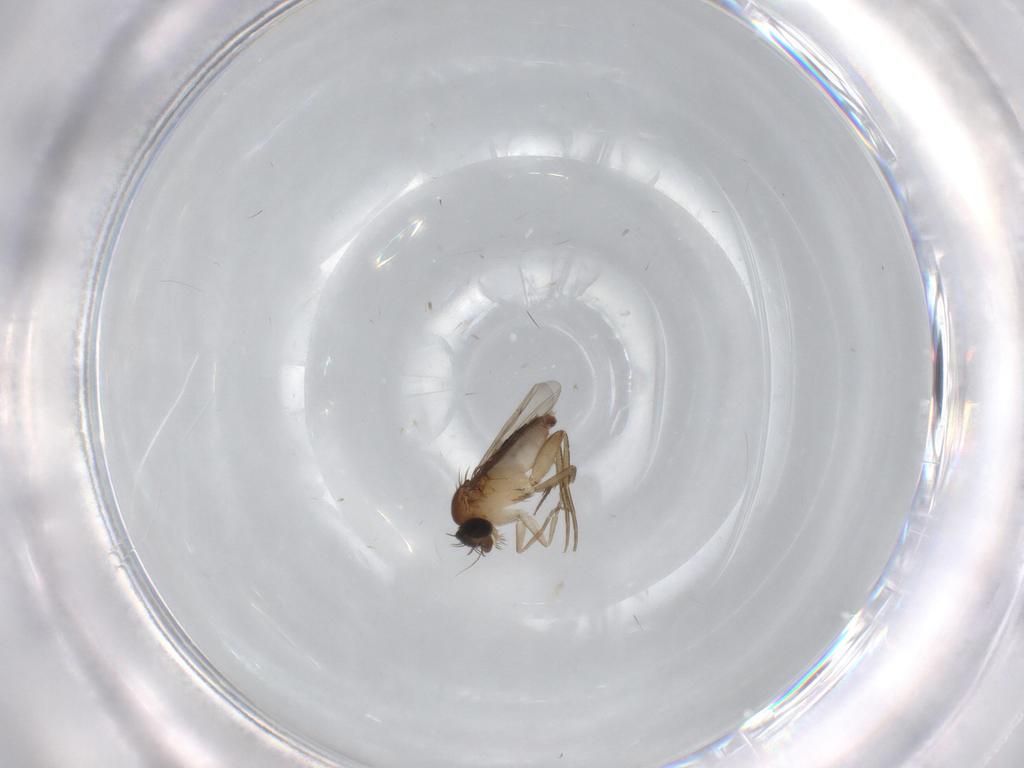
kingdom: Animalia
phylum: Arthropoda
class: Insecta
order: Diptera
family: Phoridae
